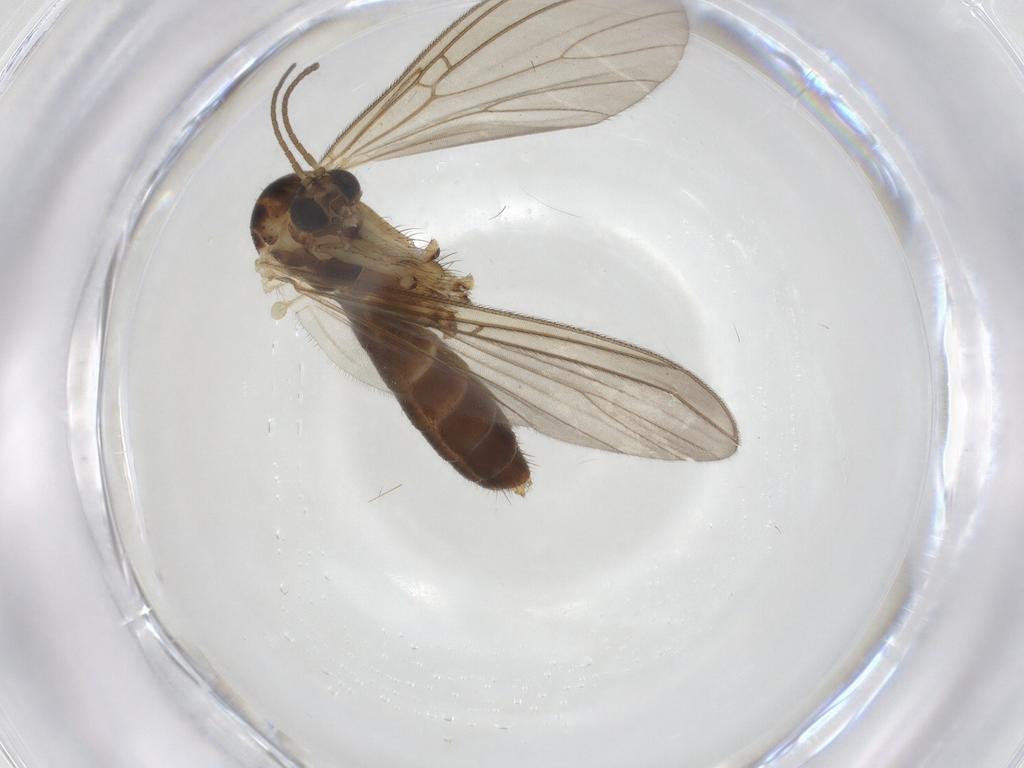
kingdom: Animalia
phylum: Arthropoda
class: Insecta
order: Diptera
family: Mycetophilidae
